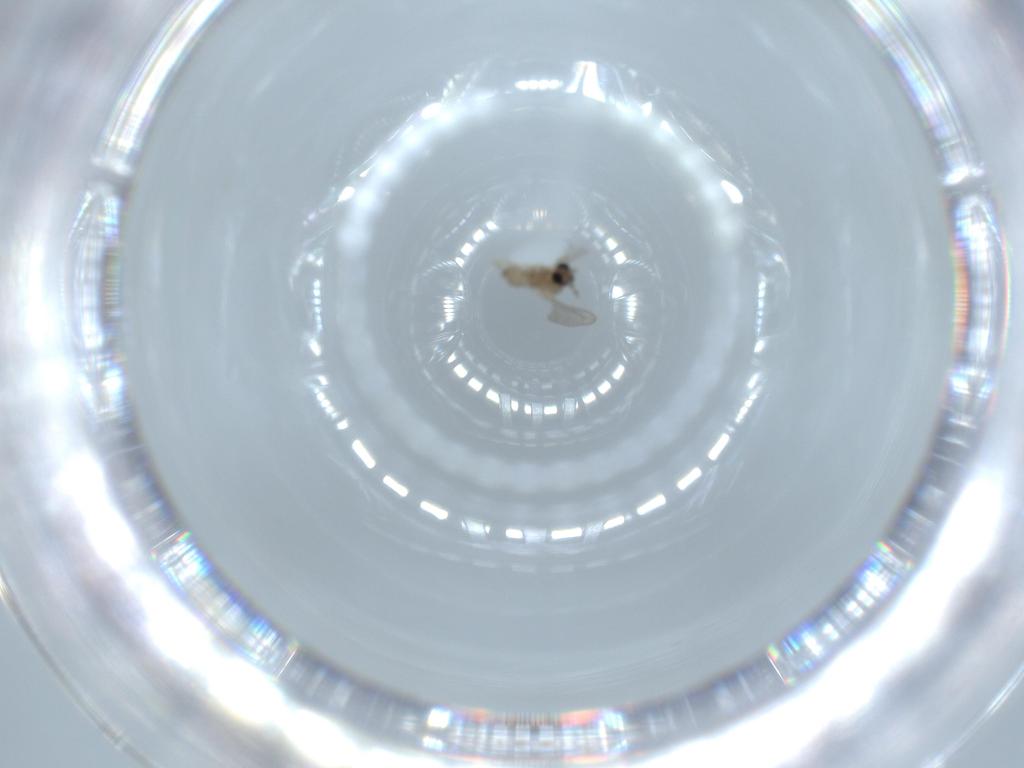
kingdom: Animalia
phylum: Arthropoda
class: Insecta
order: Diptera
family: Cecidomyiidae
